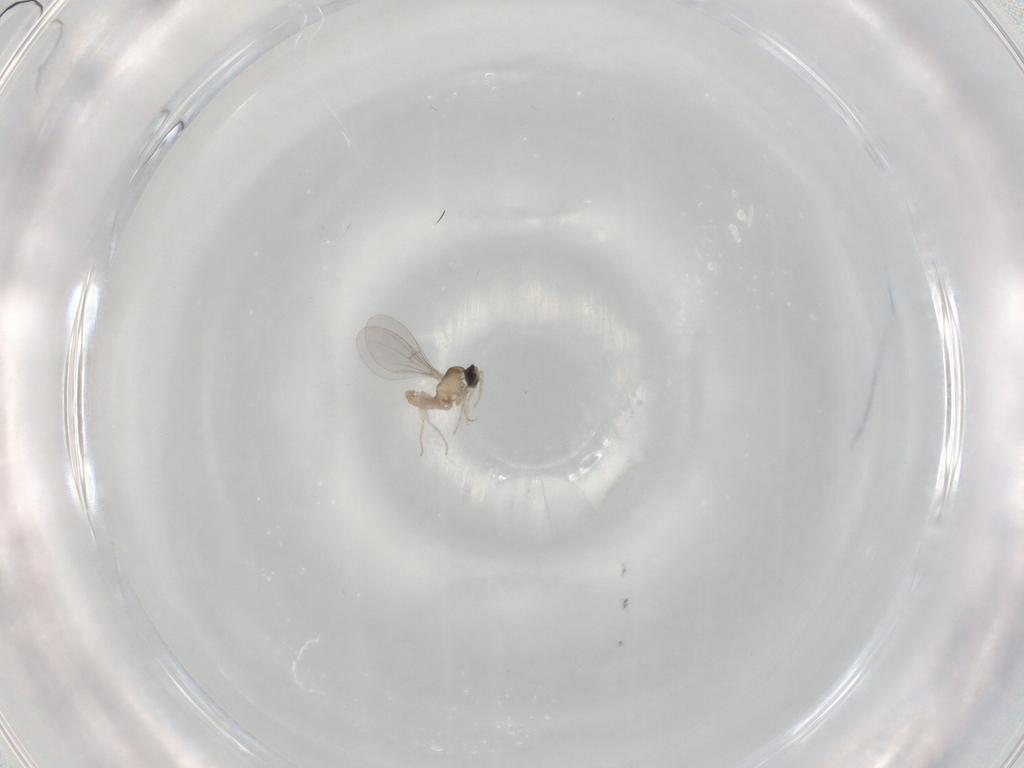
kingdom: Animalia
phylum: Arthropoda
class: Insecta
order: Diptera
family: Cecidomyiidae
